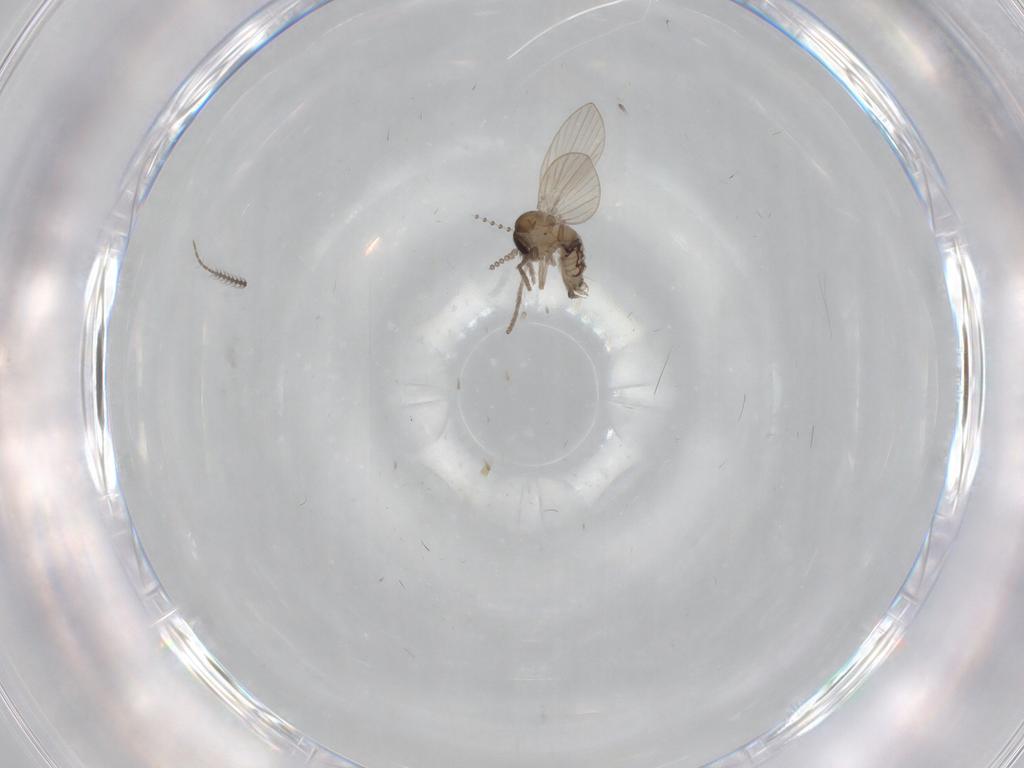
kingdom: Animalia
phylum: Arthropoda
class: Insecta
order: Diptera
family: Psychodidae
